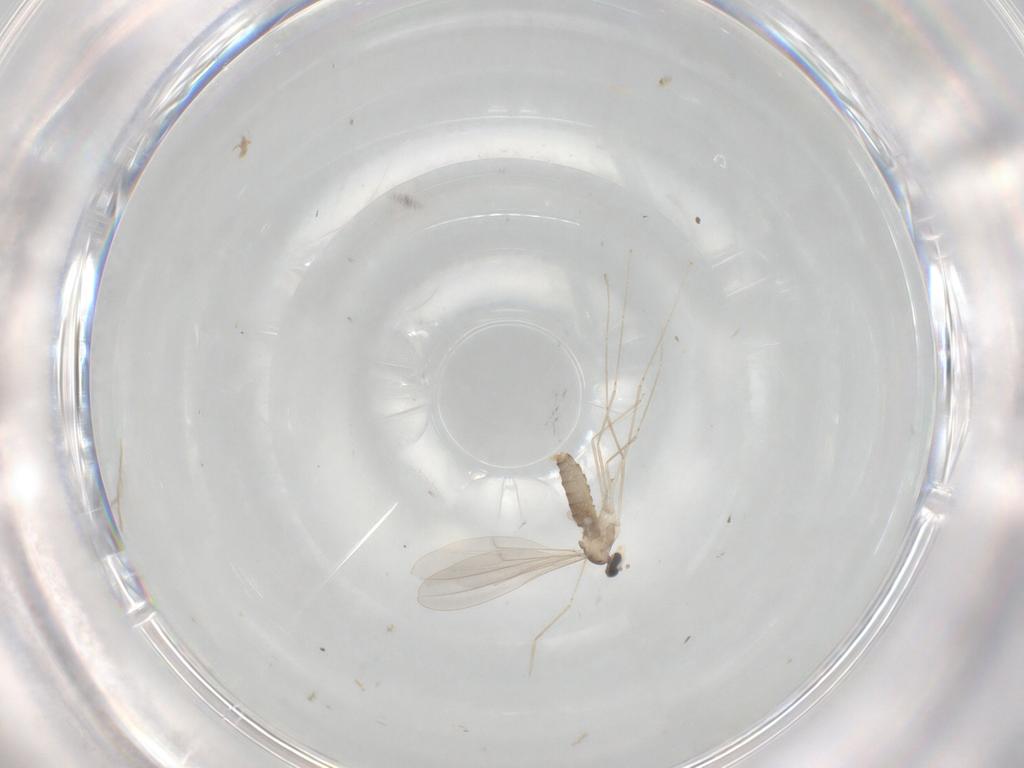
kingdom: Animalia
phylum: Arthropoda
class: Insecta
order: Diptera
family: Cecidomyiidae
